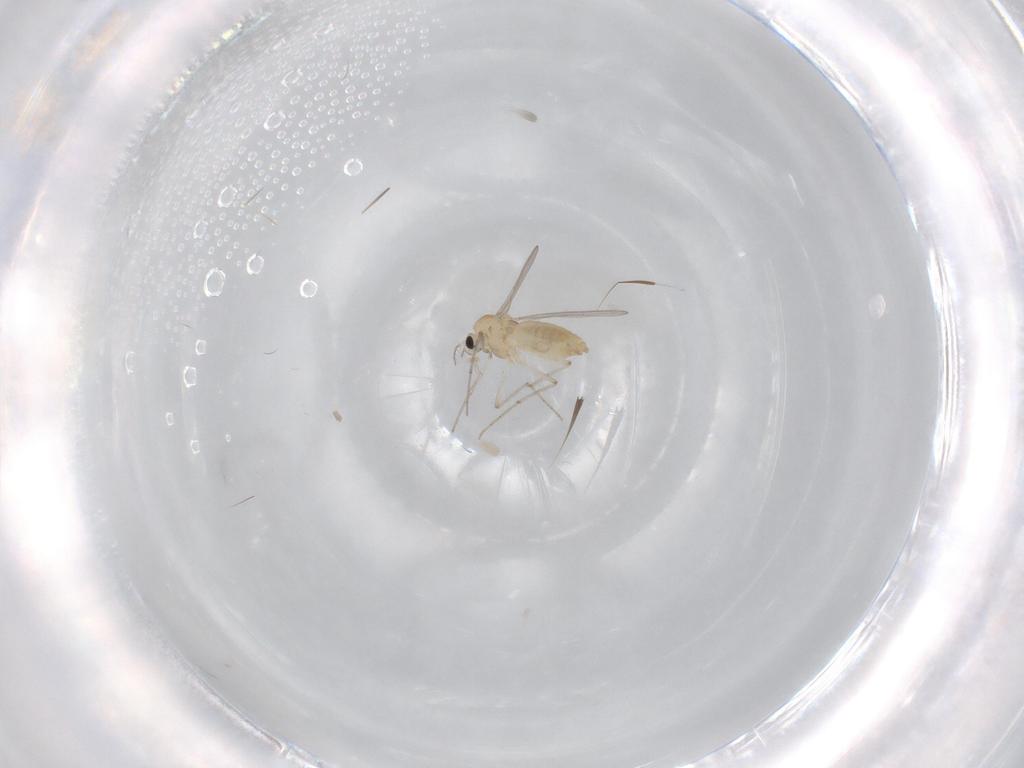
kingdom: Animalia
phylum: Arthropoda
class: Insecta
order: Diptera
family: Chironomidae
